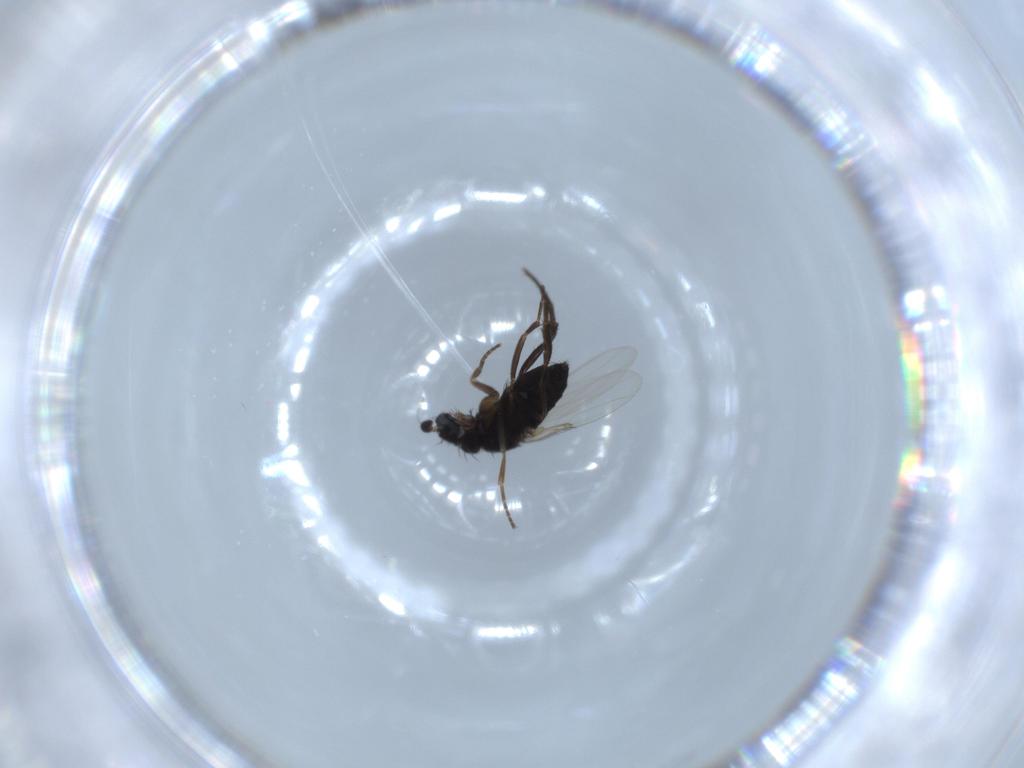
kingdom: Animalia
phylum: Arthropoda
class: Insecta
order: Diptera
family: Phoridae
